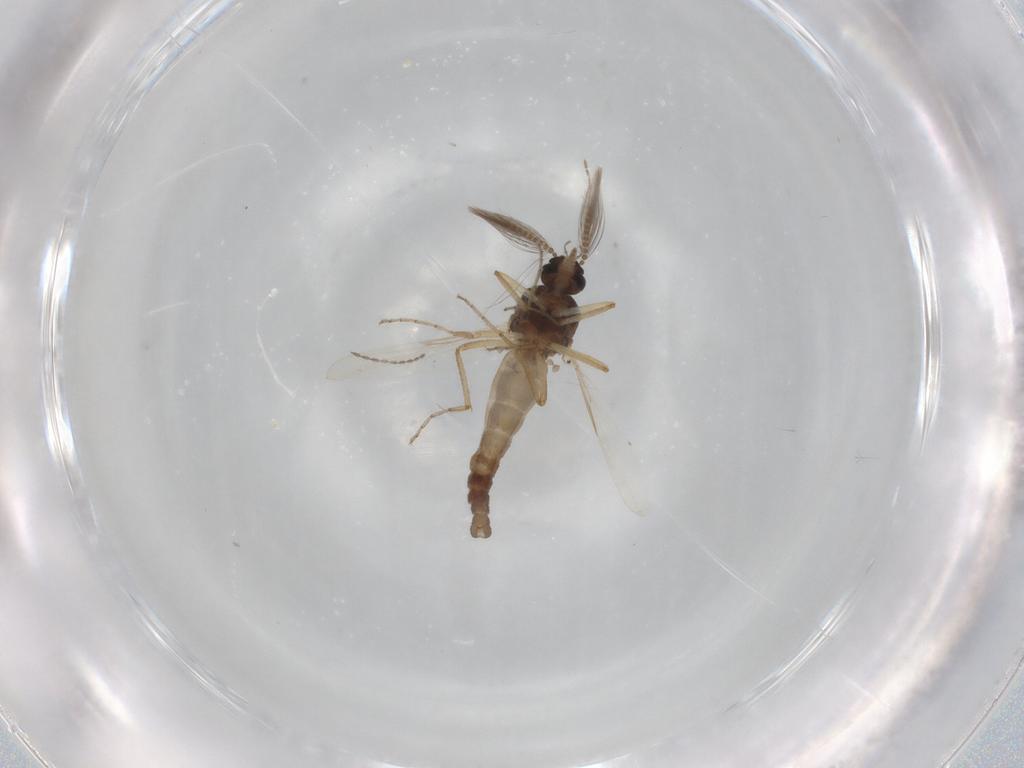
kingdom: Animalia
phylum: Arthropoda
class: Insecta
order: Diptera
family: Ceratopogonidae
